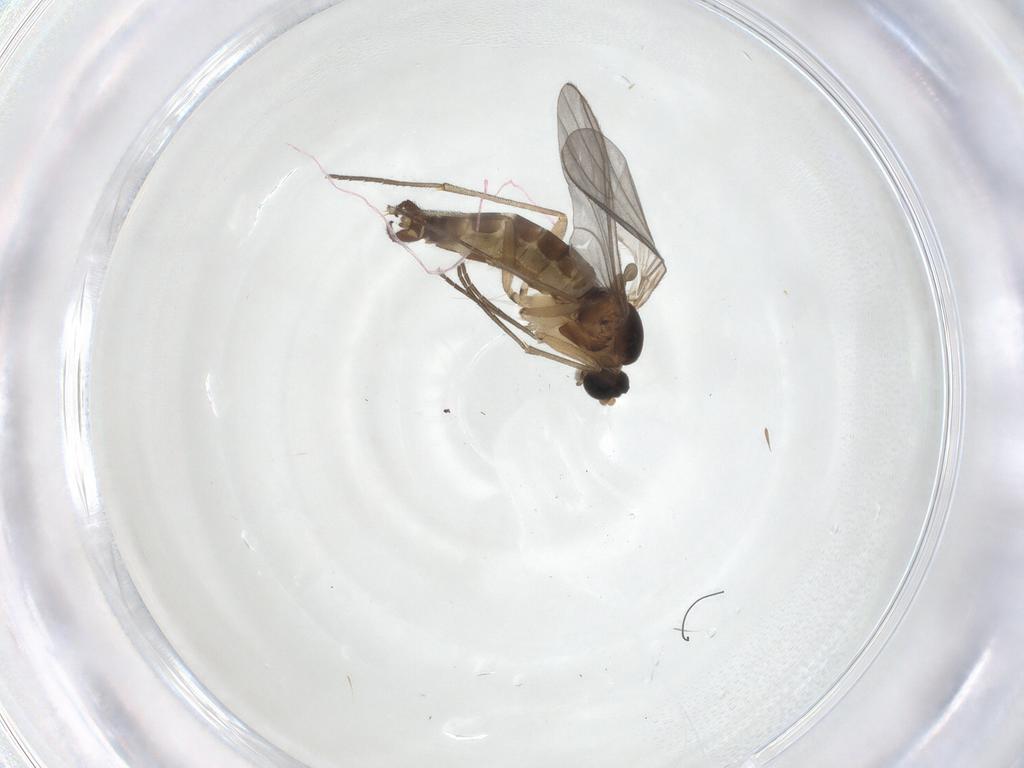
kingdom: Animalia
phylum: Arthropoda
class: Insecta
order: Diptera
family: Sciaridae
